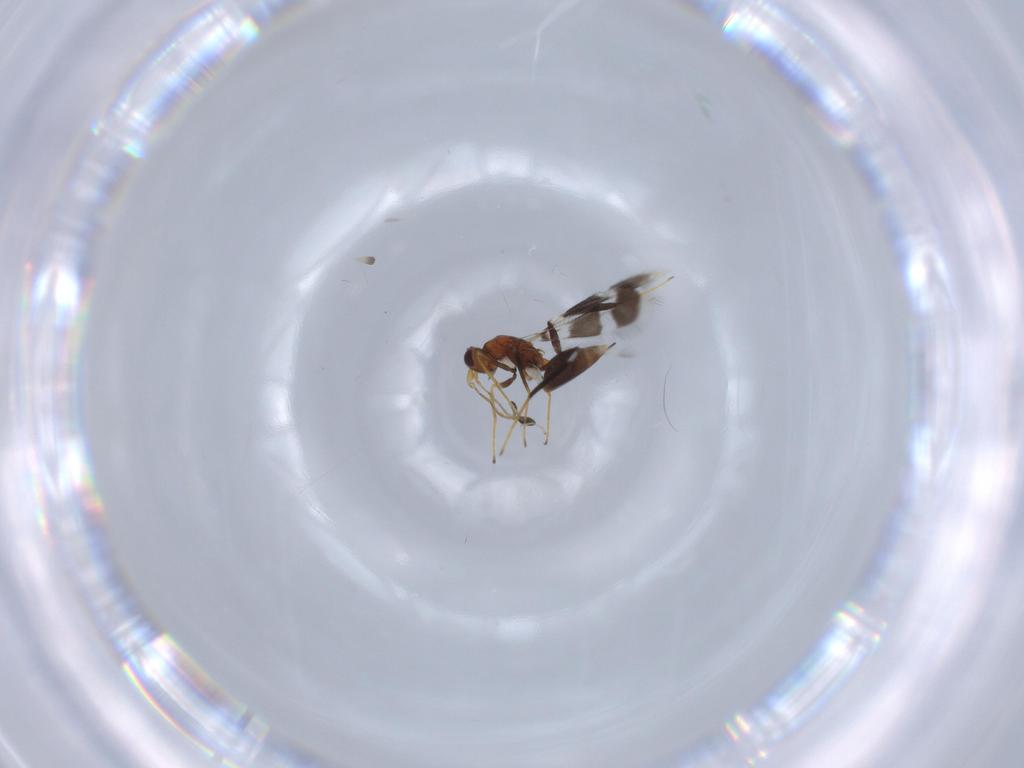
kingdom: Animalia
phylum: Arthropoda
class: Insecta
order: Hymenoptera
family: Mymaridae
